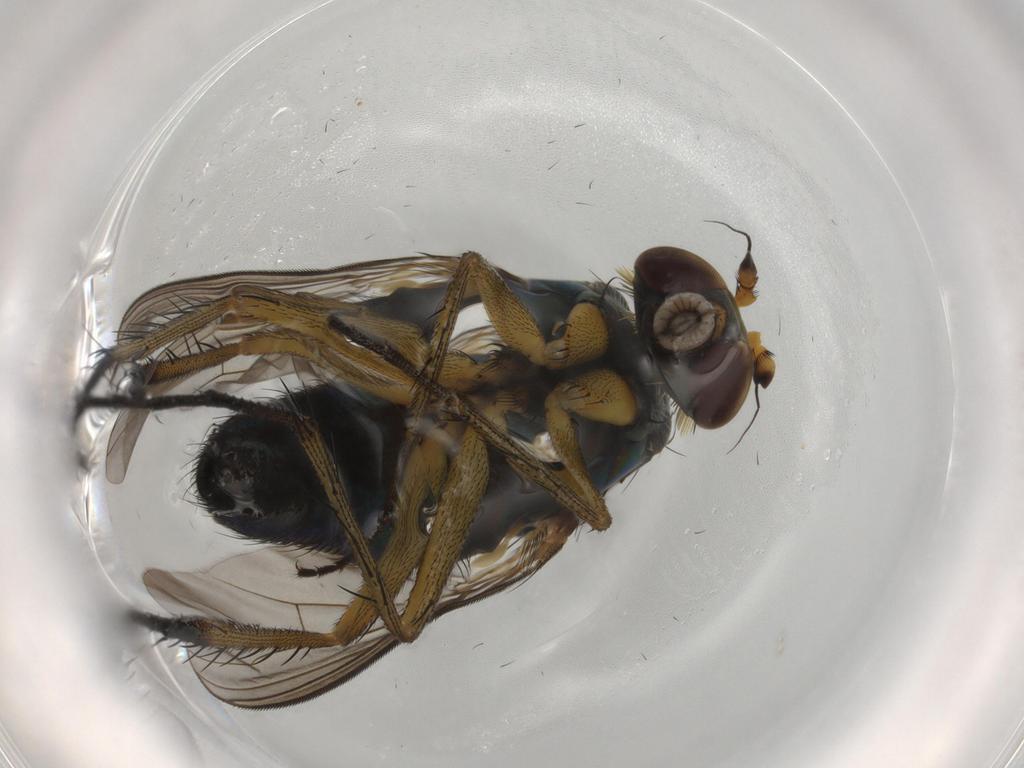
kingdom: Animalia
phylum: Arthropoda
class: Insecta
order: Diptera
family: Dolichopodidae
